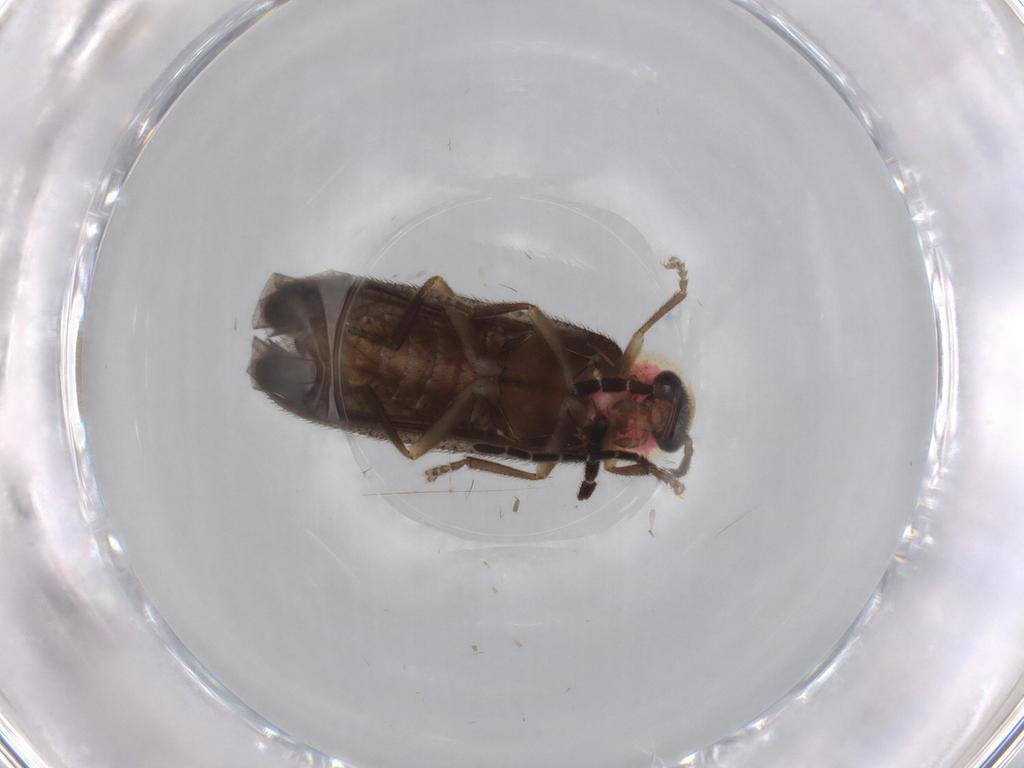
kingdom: Animalia
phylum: Arthropoda
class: Insecta
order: Coleoptera
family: Lampyridae
